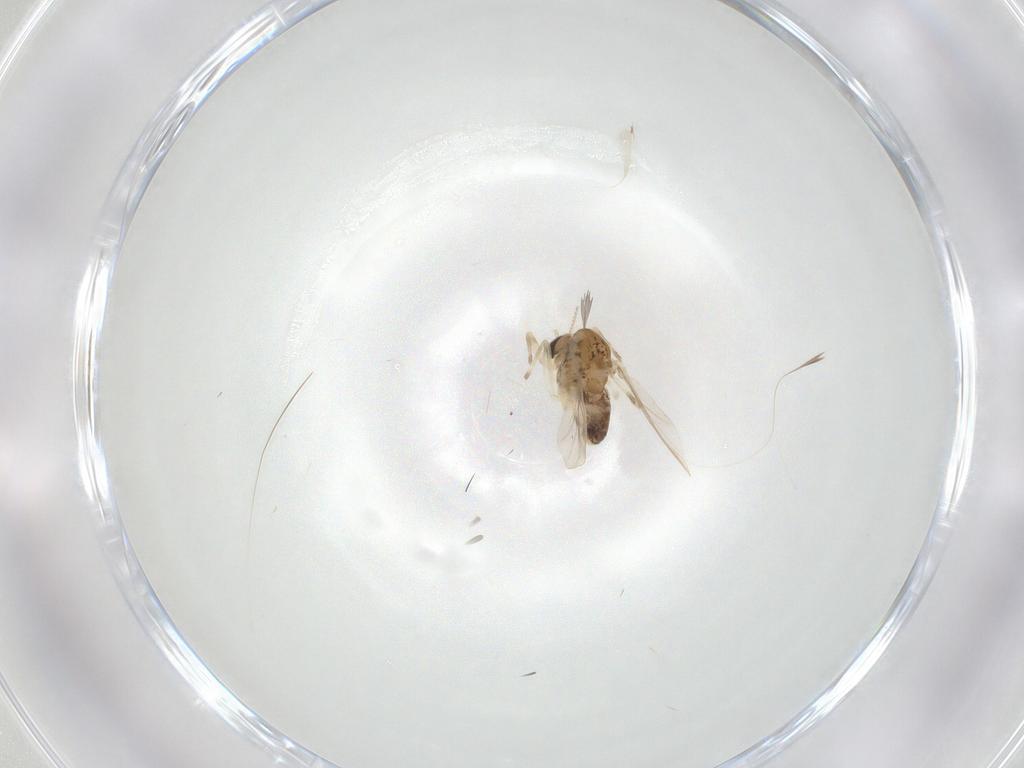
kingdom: Animalia
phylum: Arthropoda
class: Insecta
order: Diptera
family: Chironomidae
